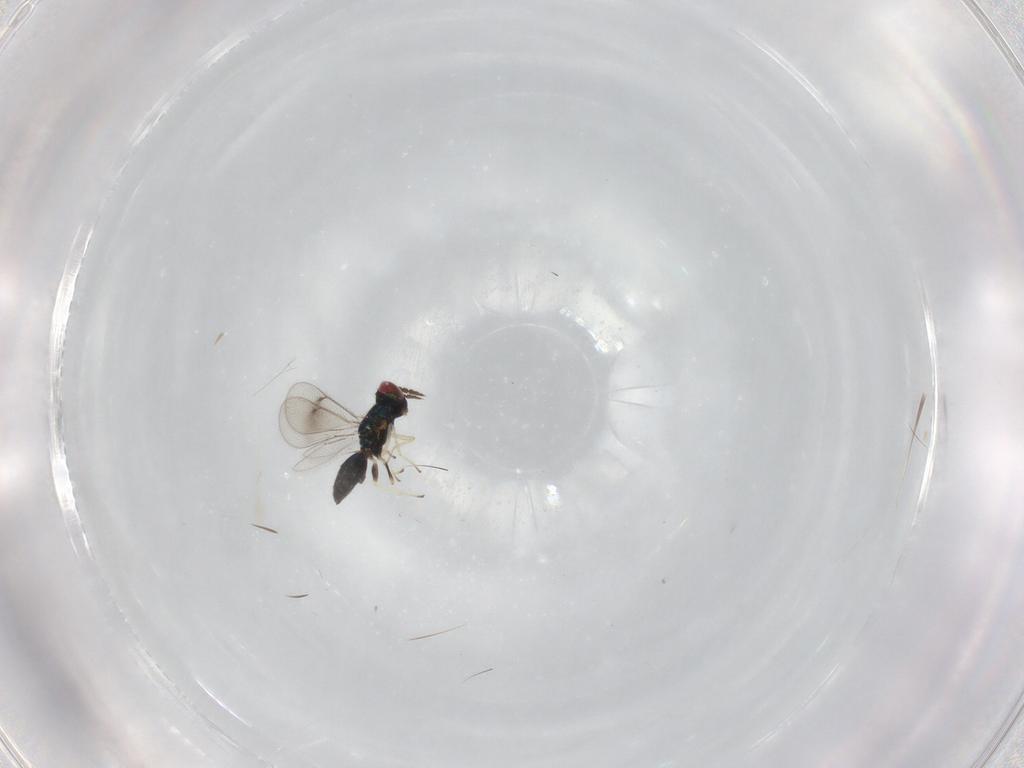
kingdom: Animalia
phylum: Arthropoda
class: Insecta
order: Hymenoptera
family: Eulophidae
